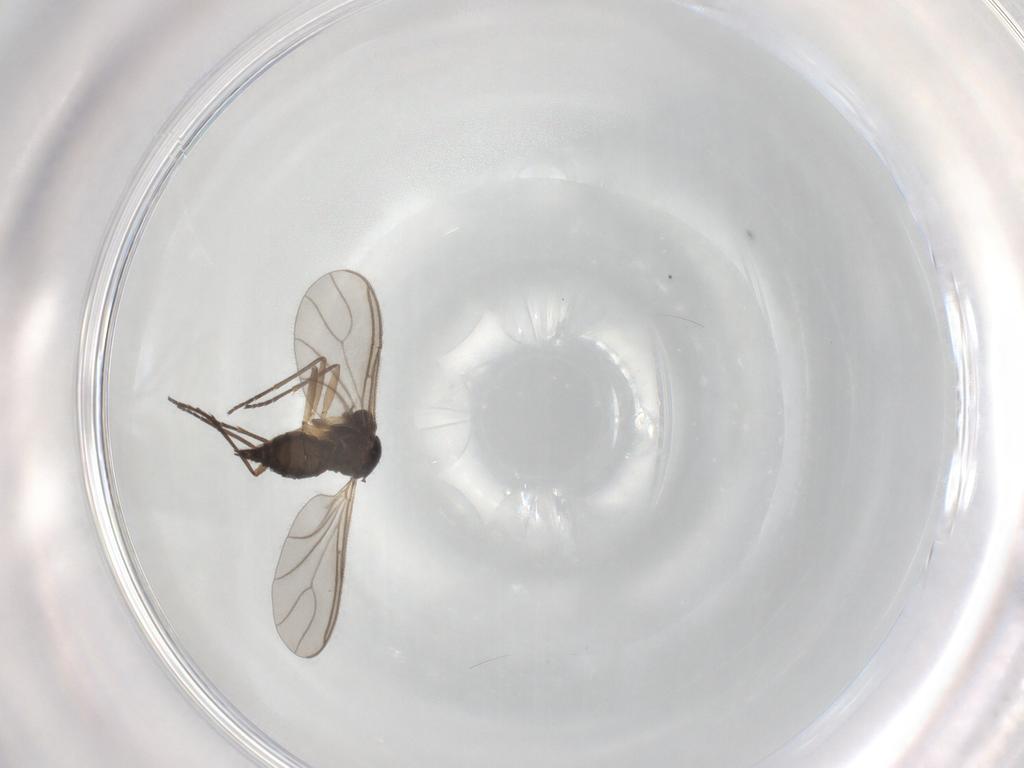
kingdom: Animalia
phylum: Arthropoda
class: Insecta
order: Diptera
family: Sciaridae
